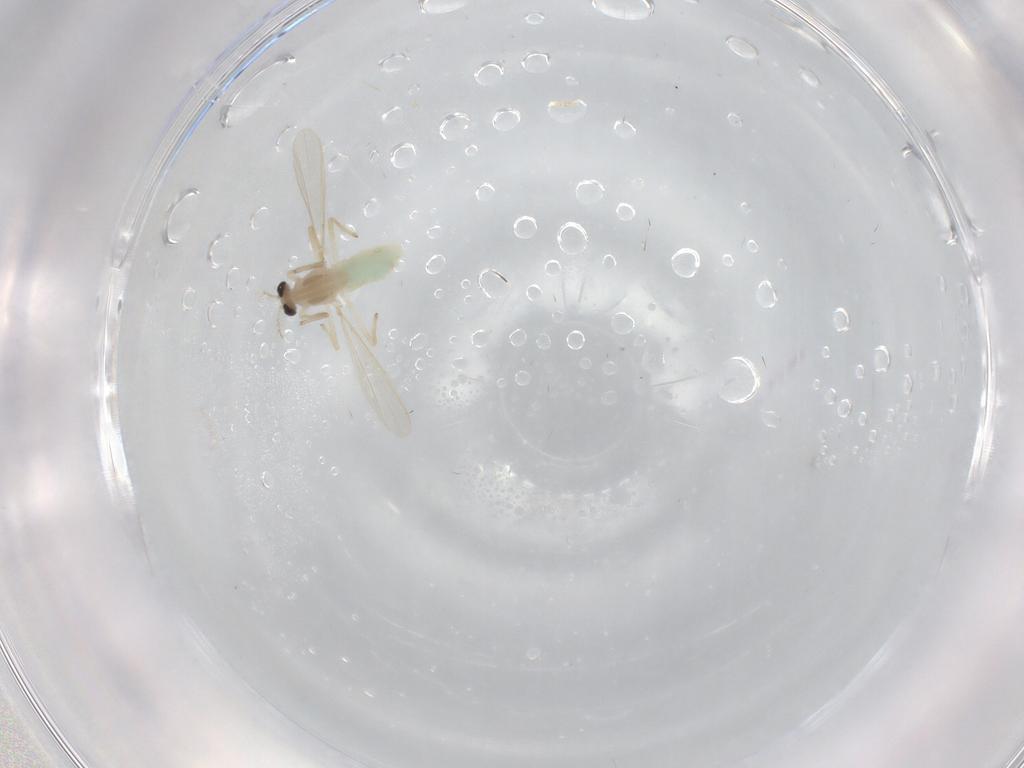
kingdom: Animalia
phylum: Arthropoda
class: Insecta
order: Diptera
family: Chironomidae
